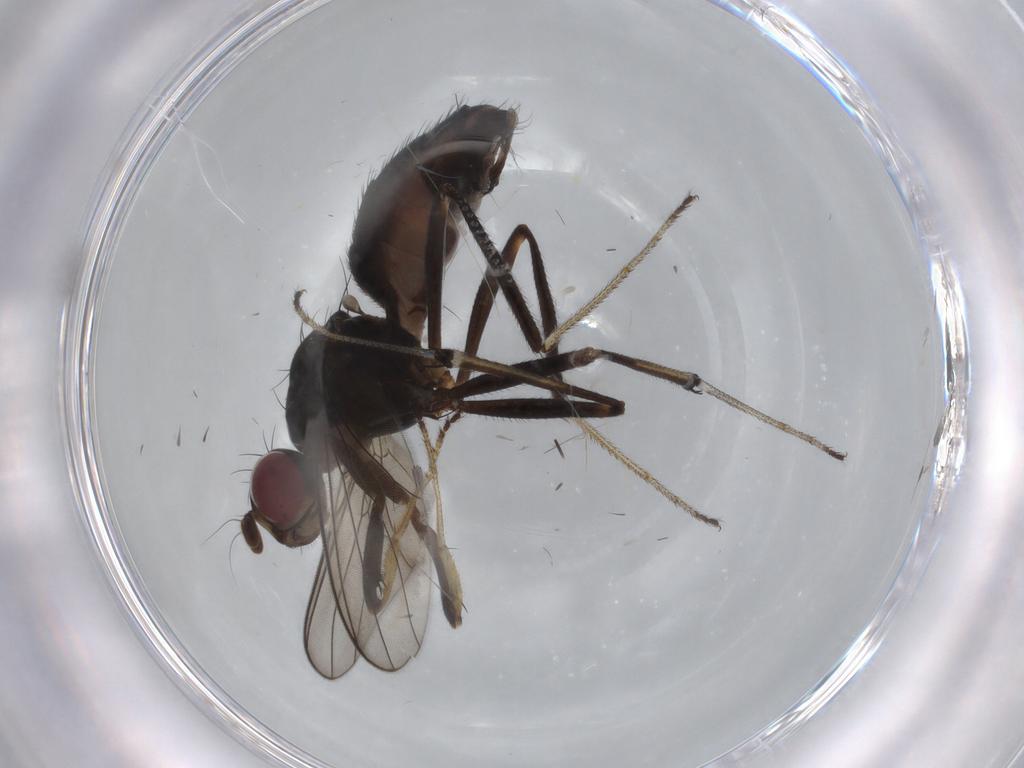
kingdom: Animalia
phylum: Arthropoda
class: Insecta
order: Diptera
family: Sepsidae
